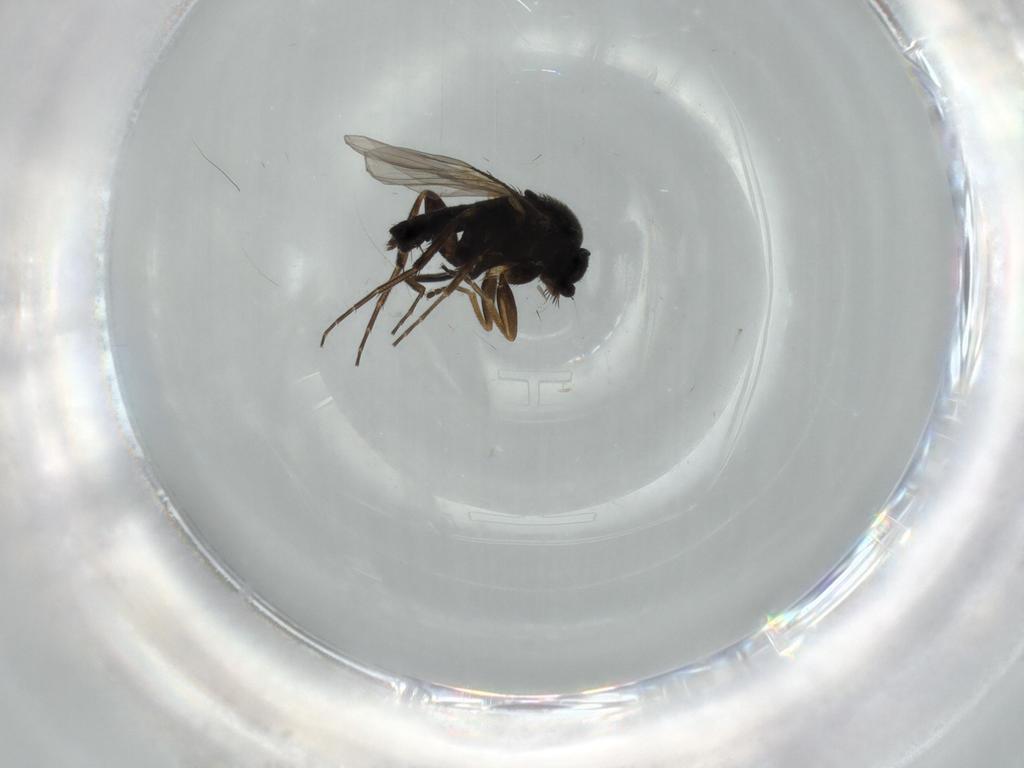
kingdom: Animalia
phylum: Arthropoda
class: Insecta
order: Diptera
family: Phoridae
